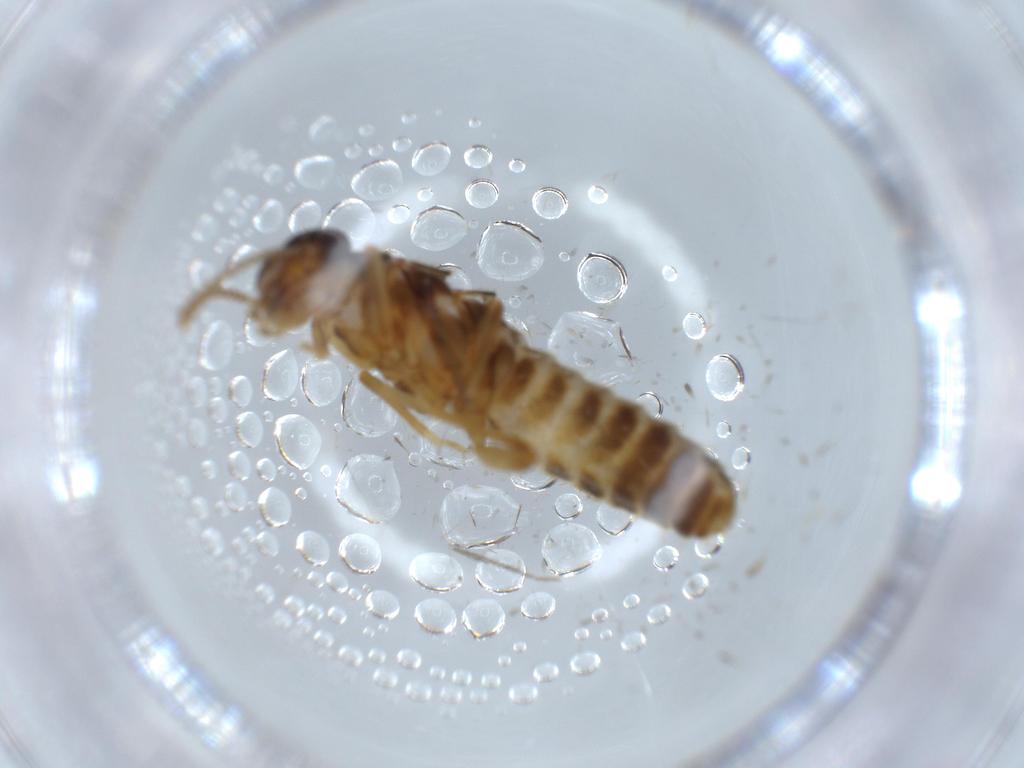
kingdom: Animalia
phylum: Arthropoda
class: Insecta
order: Blattodea
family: Termitidae
